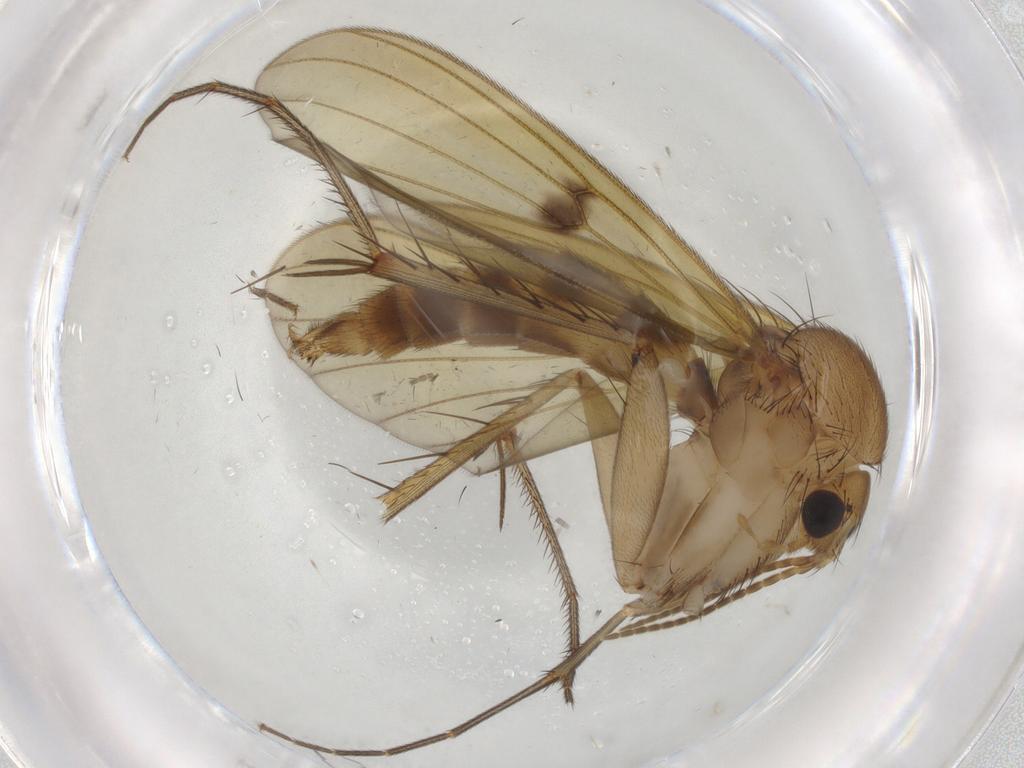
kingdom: Animalia
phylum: Arthropoda
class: Insecta
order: Diptera
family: Mycetophilidae
